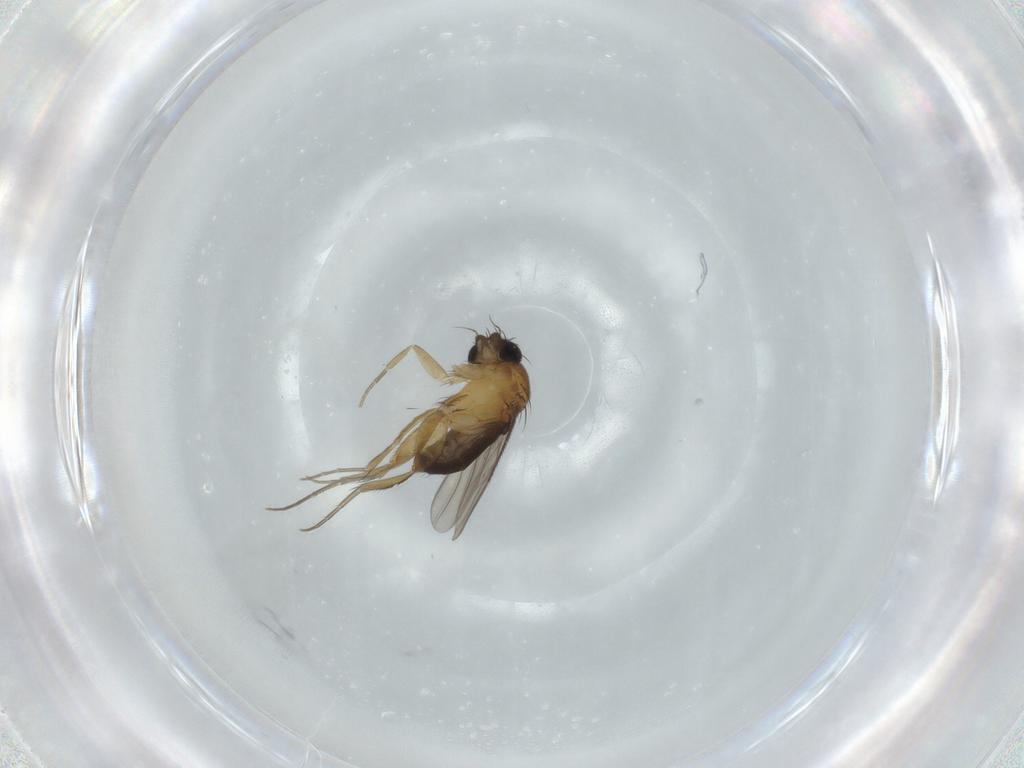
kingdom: Animalia
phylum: Arthropoda
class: Insecta
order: Diptera
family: Phoridae
